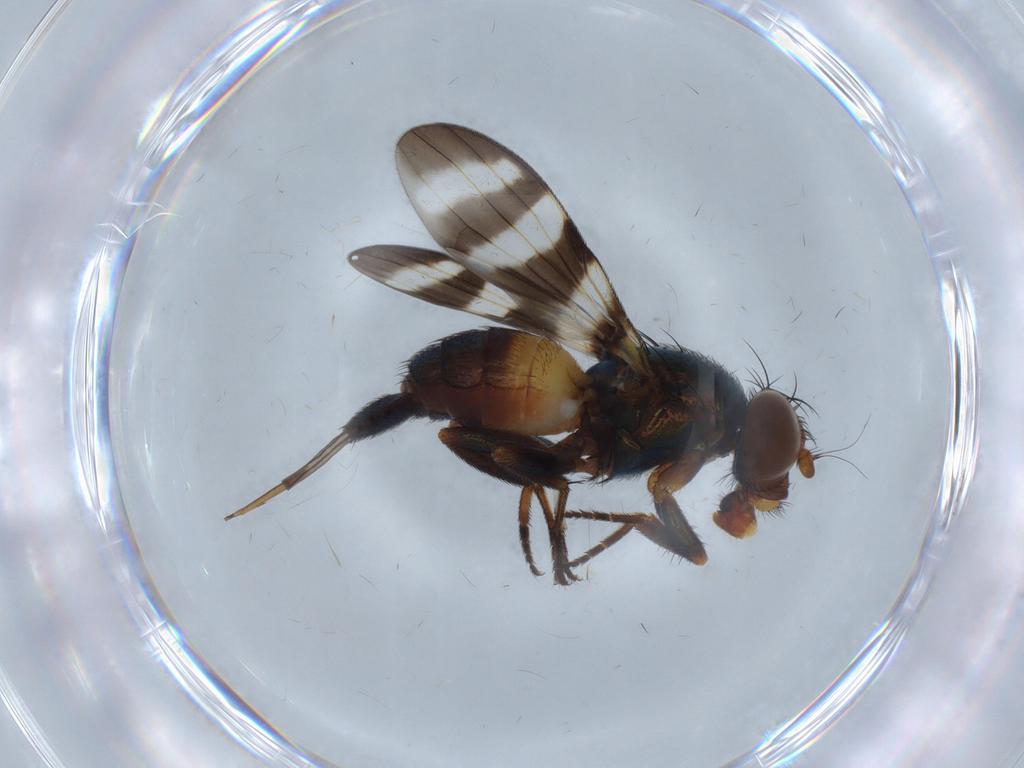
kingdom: Animalia
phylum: Arthropoda
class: Insecta
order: Diptera
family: Ulidiidae
